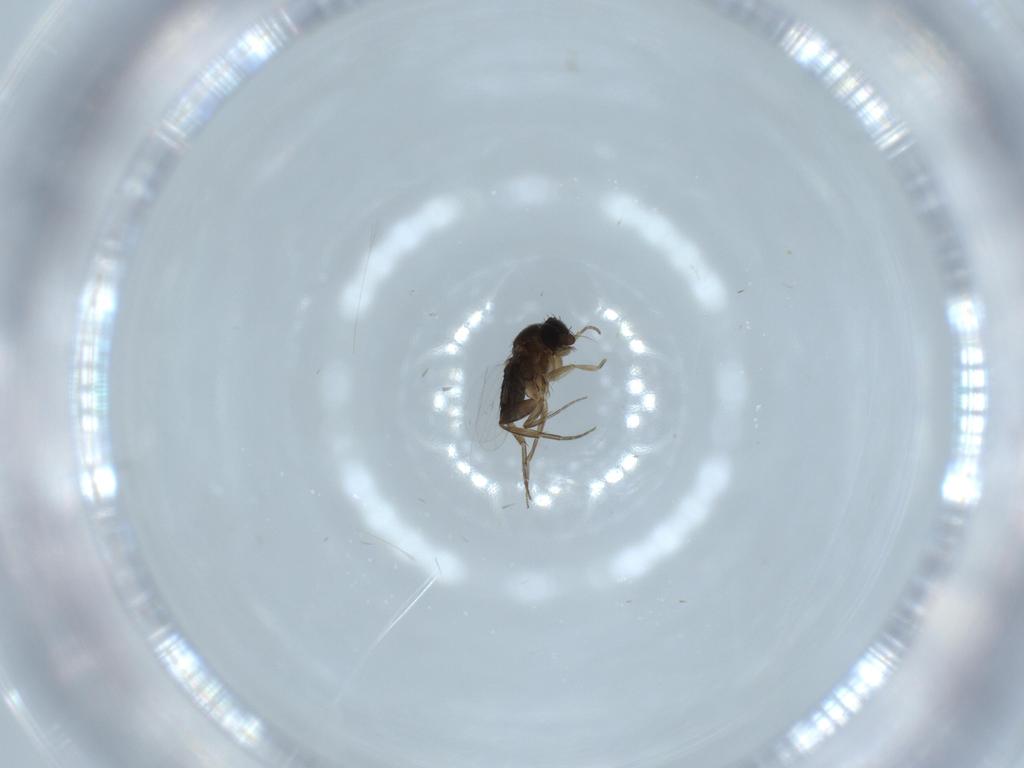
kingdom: Animalia
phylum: Arthropoda
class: Insecta
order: Diptera
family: Phoridae
